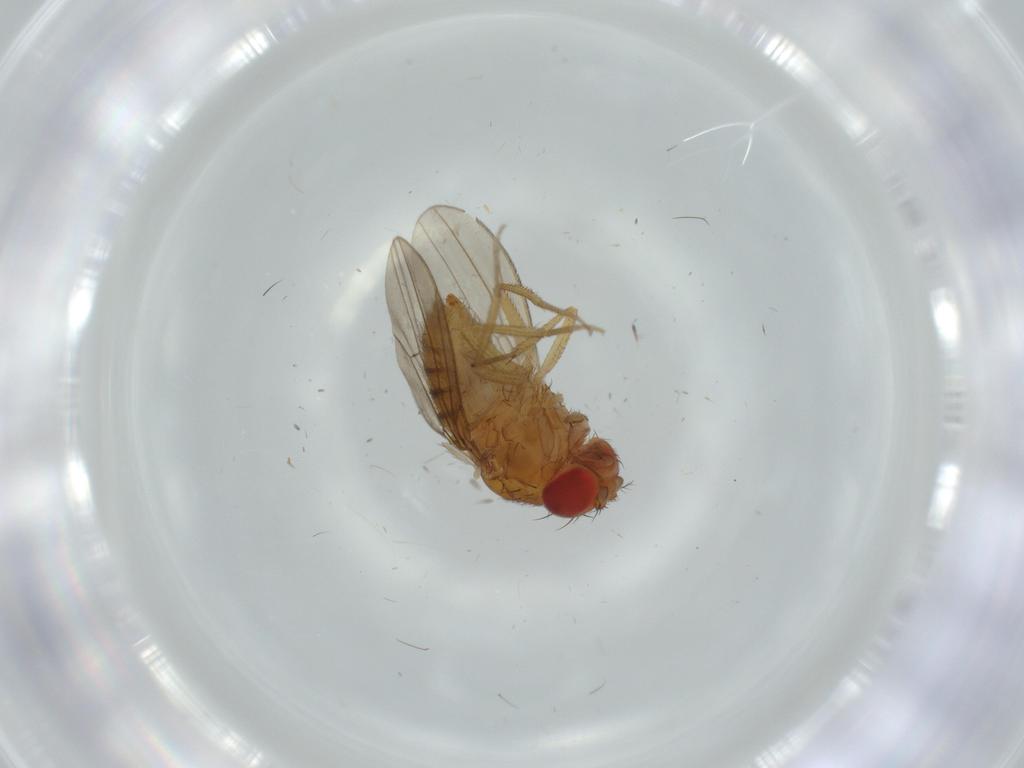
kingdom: Animalia
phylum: Arthropoda
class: Insecta
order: Diptera
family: Drosophilidae
